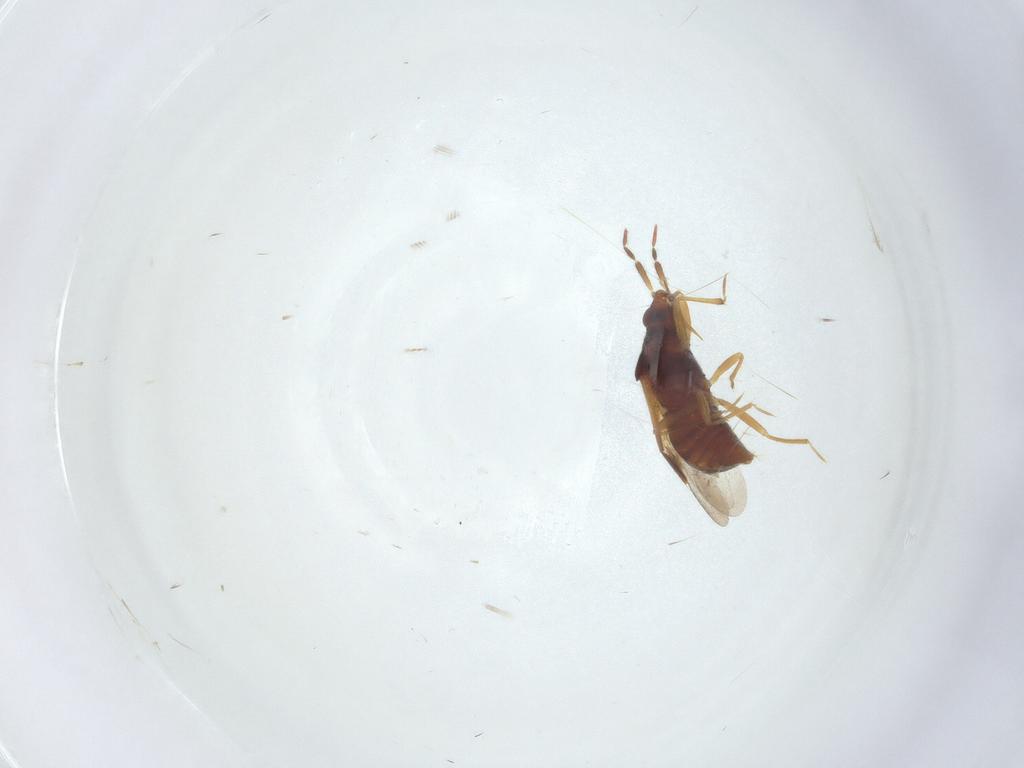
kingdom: Animalia
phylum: Arthropoda
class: Insecta
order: Hemiptera
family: Anthocoridae
